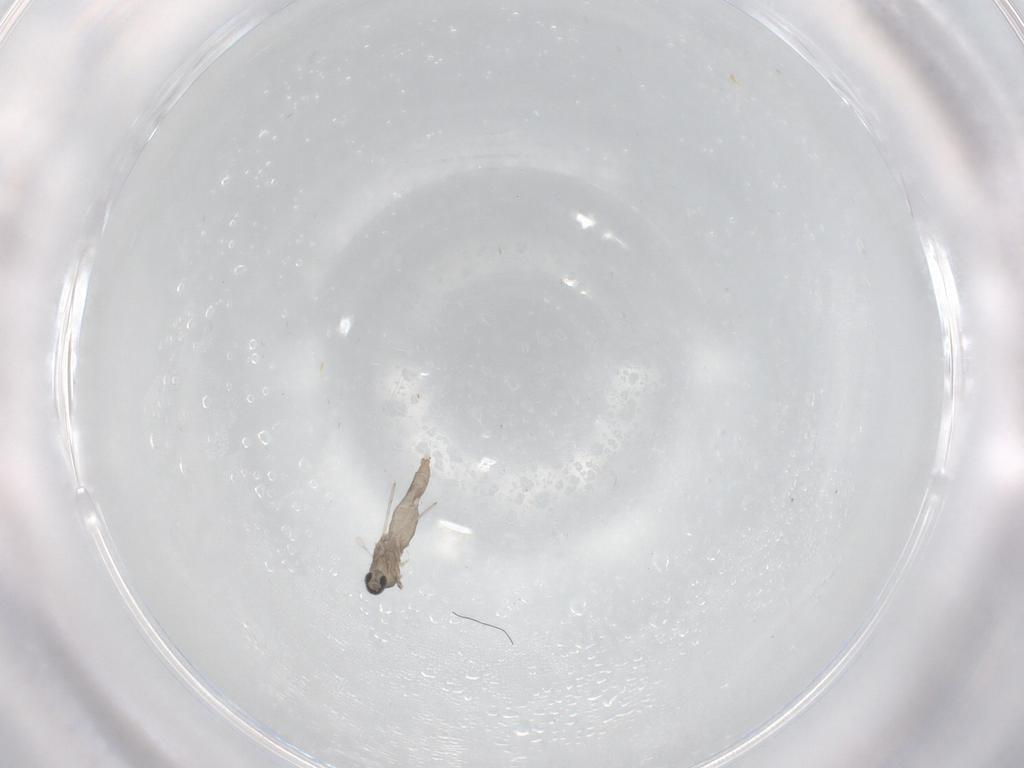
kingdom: Animalia
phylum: Arthropoda
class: Insecta
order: Diptera
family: Cecidomyiidae
